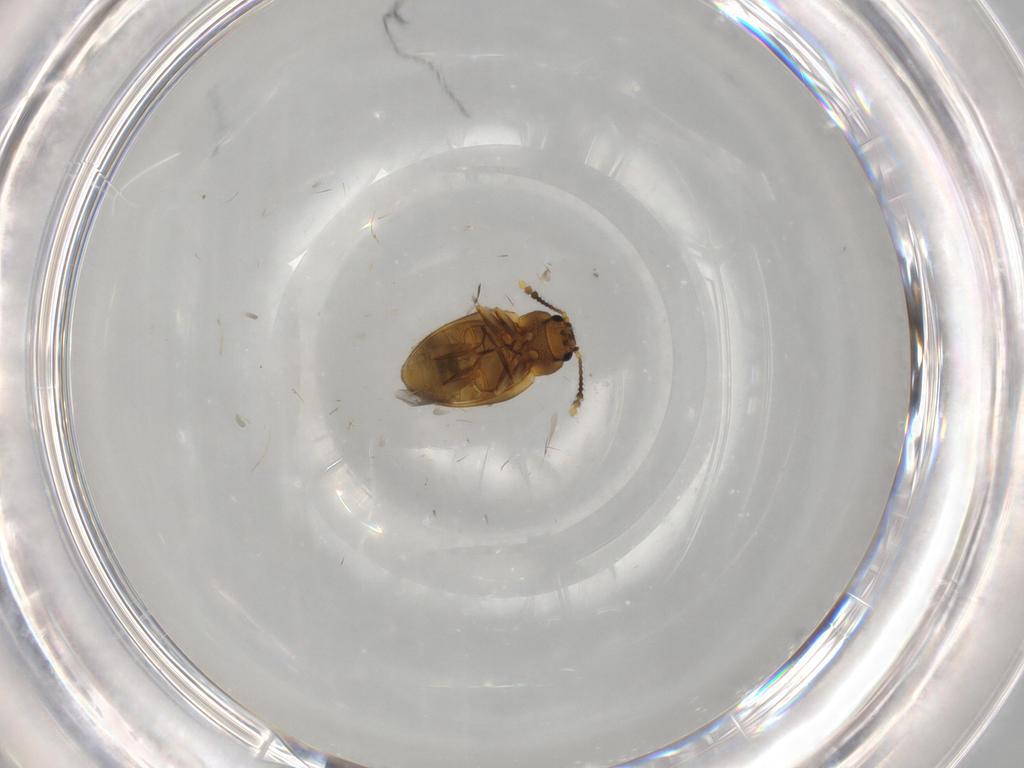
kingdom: Animalia
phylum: Arthropoda
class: Insecta
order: Coleoptera
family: Erotylidae
